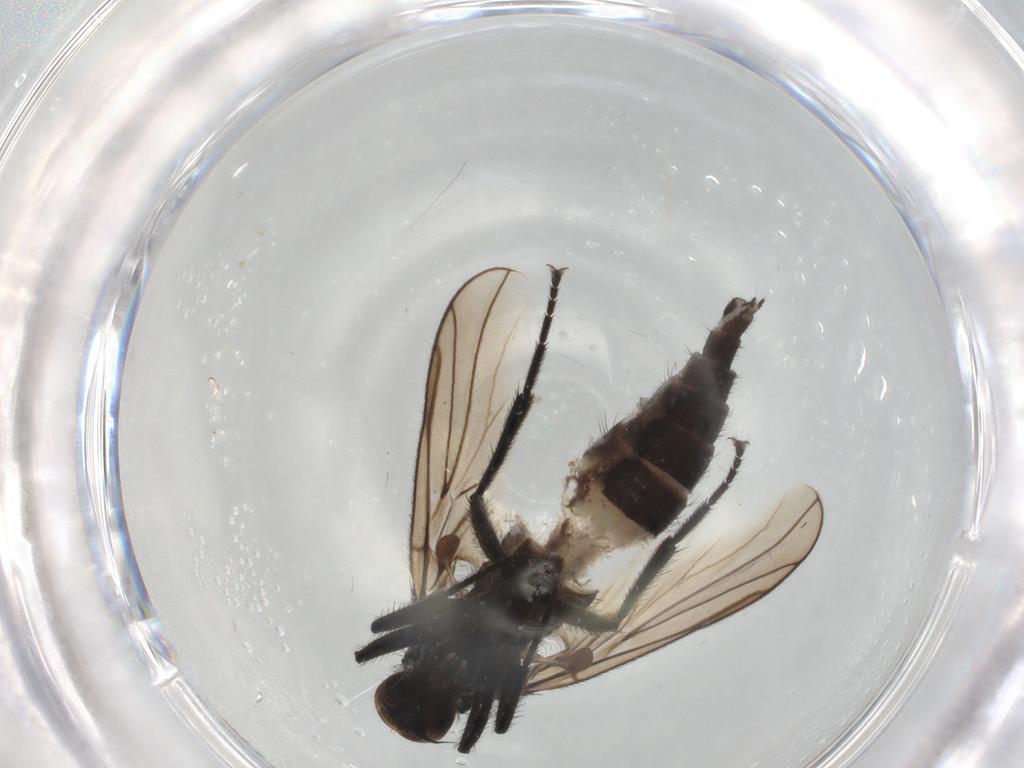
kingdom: Animalia
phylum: Arthropoda
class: Insecta
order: Diptera
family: Hybotidae
